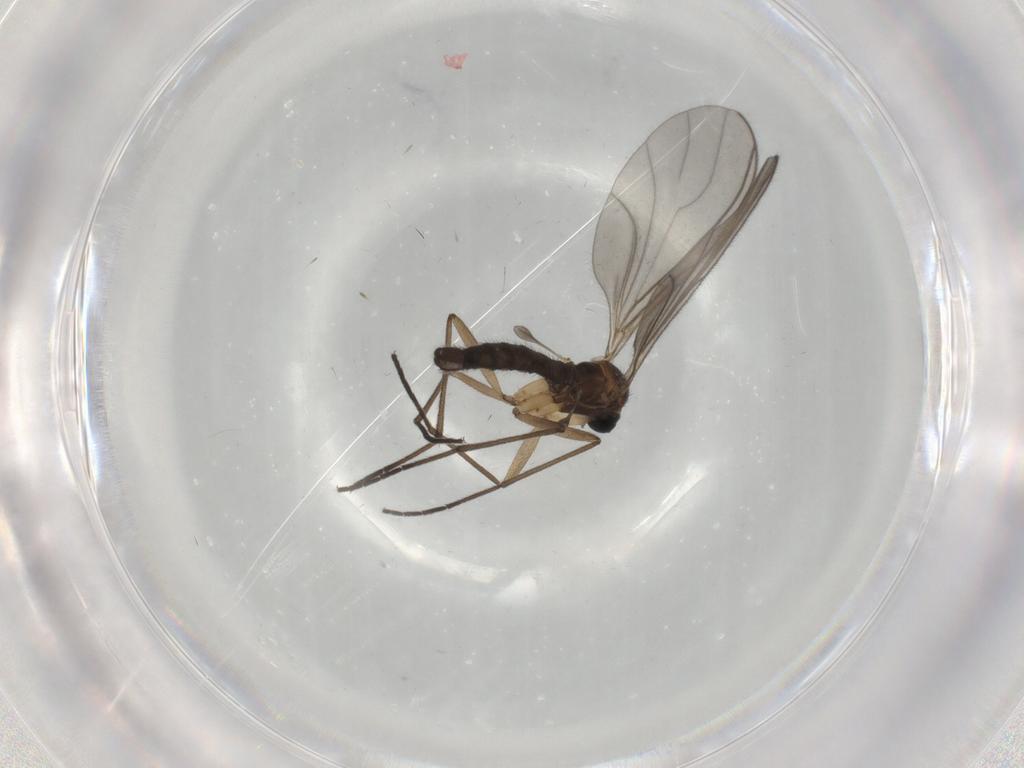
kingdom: Animalia
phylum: Arthropoda
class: Insecta
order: Diptera
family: Sciaridae
